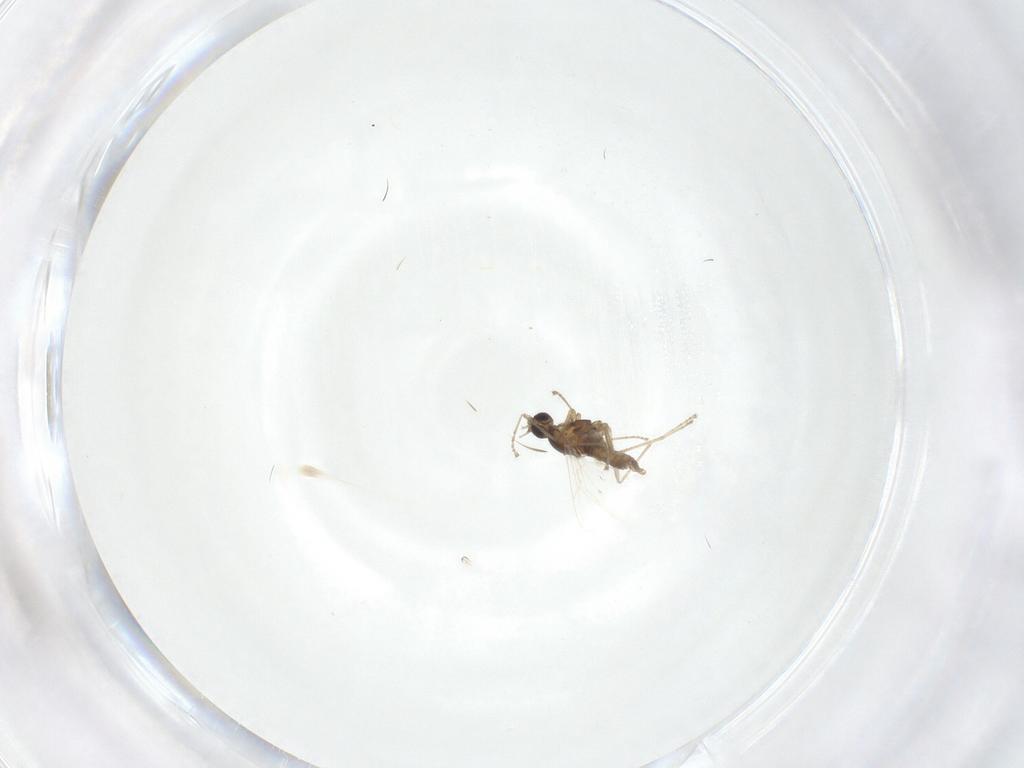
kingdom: Animalia
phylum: Arthropoda
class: Insecta
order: Diptera
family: Cecidomyiidae
